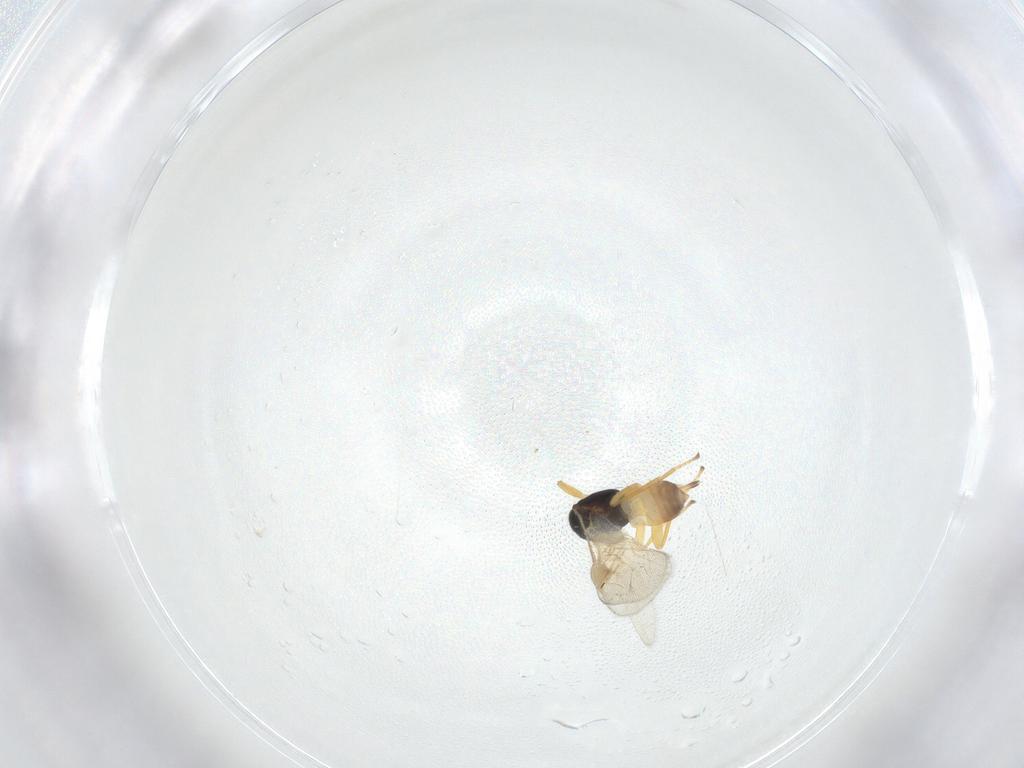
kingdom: Animalia
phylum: Arthropoda
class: Insecta
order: Hymenoptera
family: Braconidae
